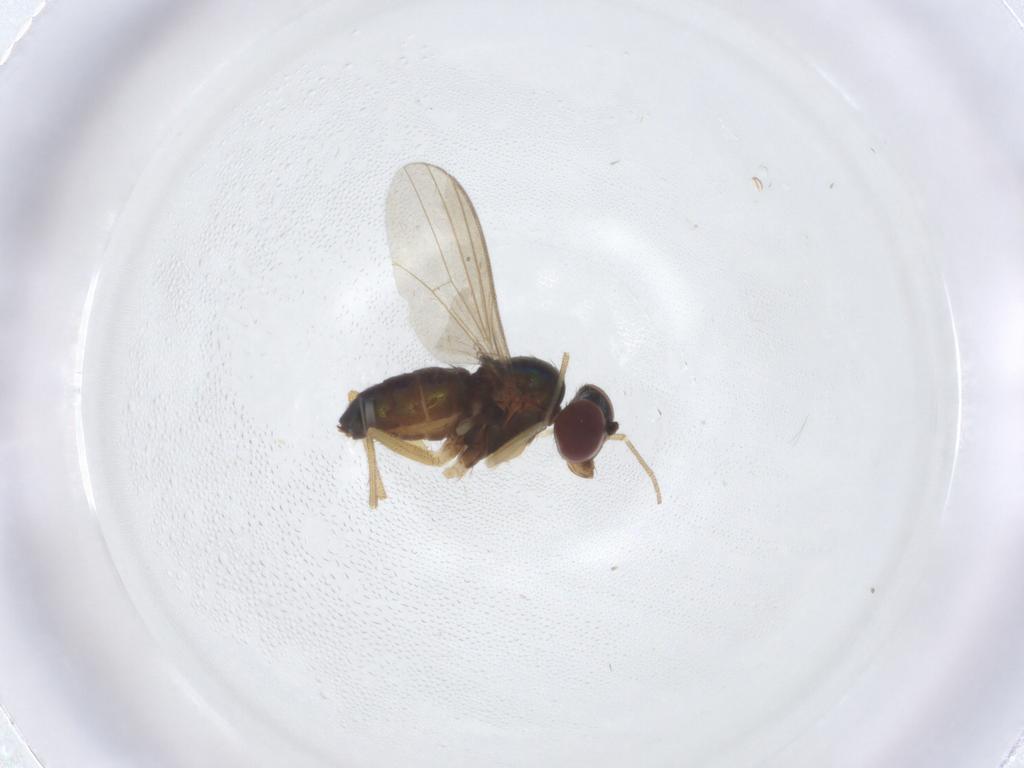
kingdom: Animalia
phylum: Arthropoda
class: Insecta
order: Diptera
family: Dolichopodidae
